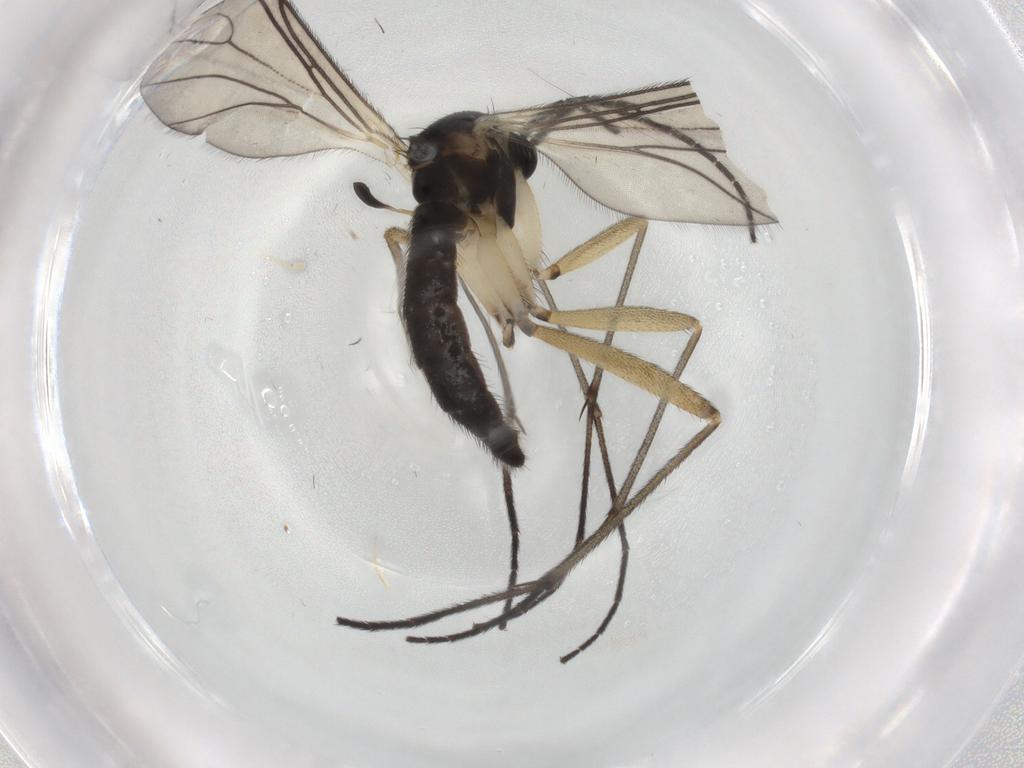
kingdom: Animalia
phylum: Arthropoda
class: Insecta
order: Diptera
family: Sciaridae
